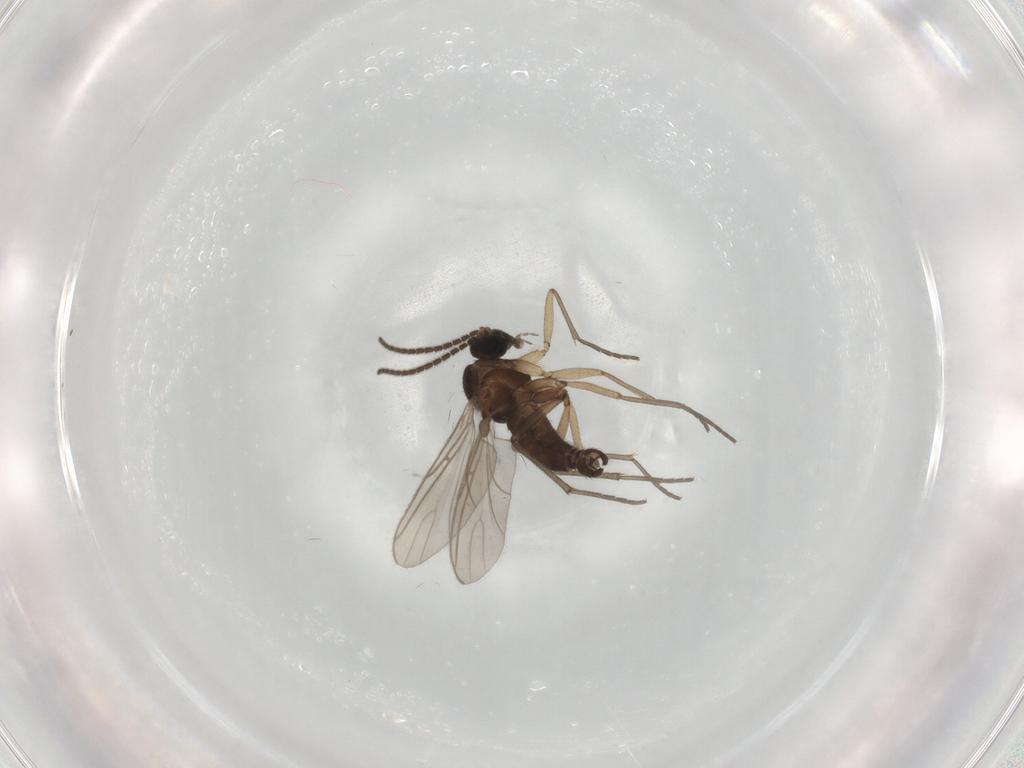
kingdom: Animalia
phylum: Arthropoda
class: Insecta
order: Diptera
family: Sciaridae
